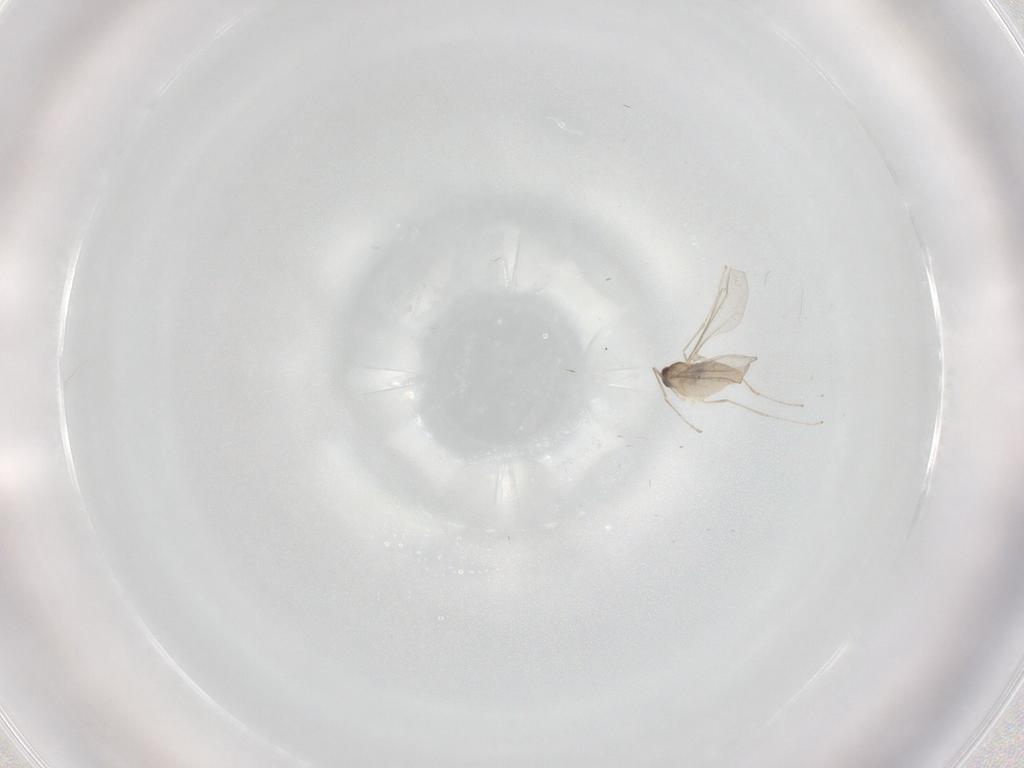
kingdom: Animalia
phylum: Arthropoda
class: Insecta
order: Diptera
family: Cecidomyiidae
